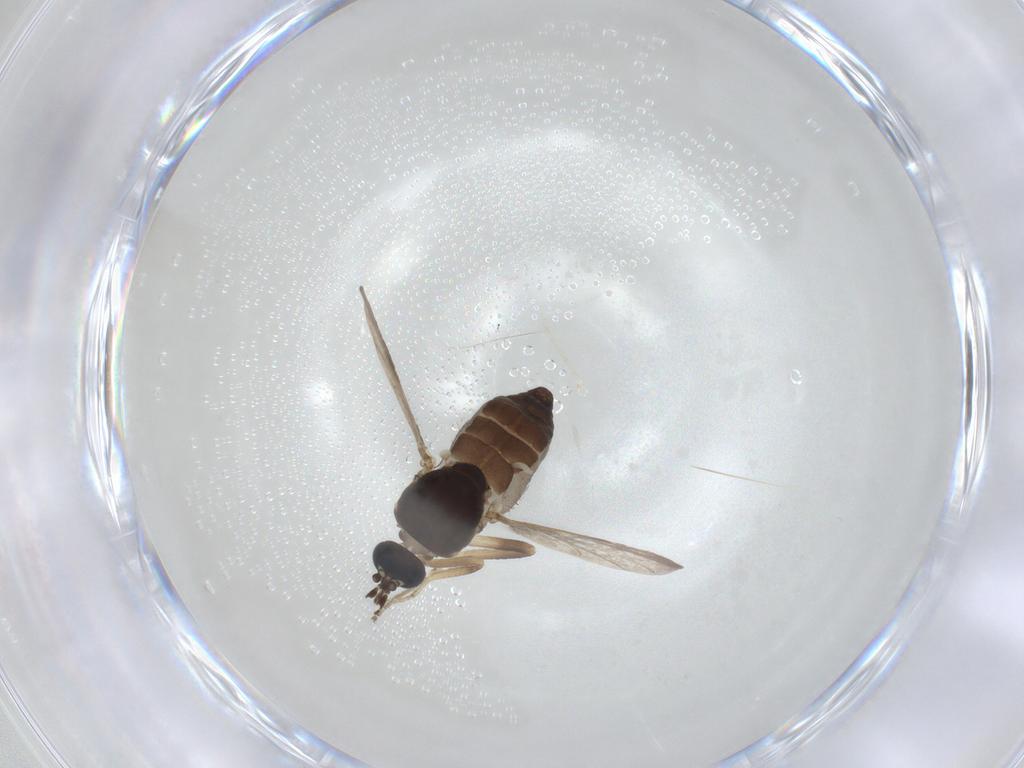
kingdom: Animalia
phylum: Arthropoda
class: Insecta
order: Diptera
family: Ceratopogonidae
